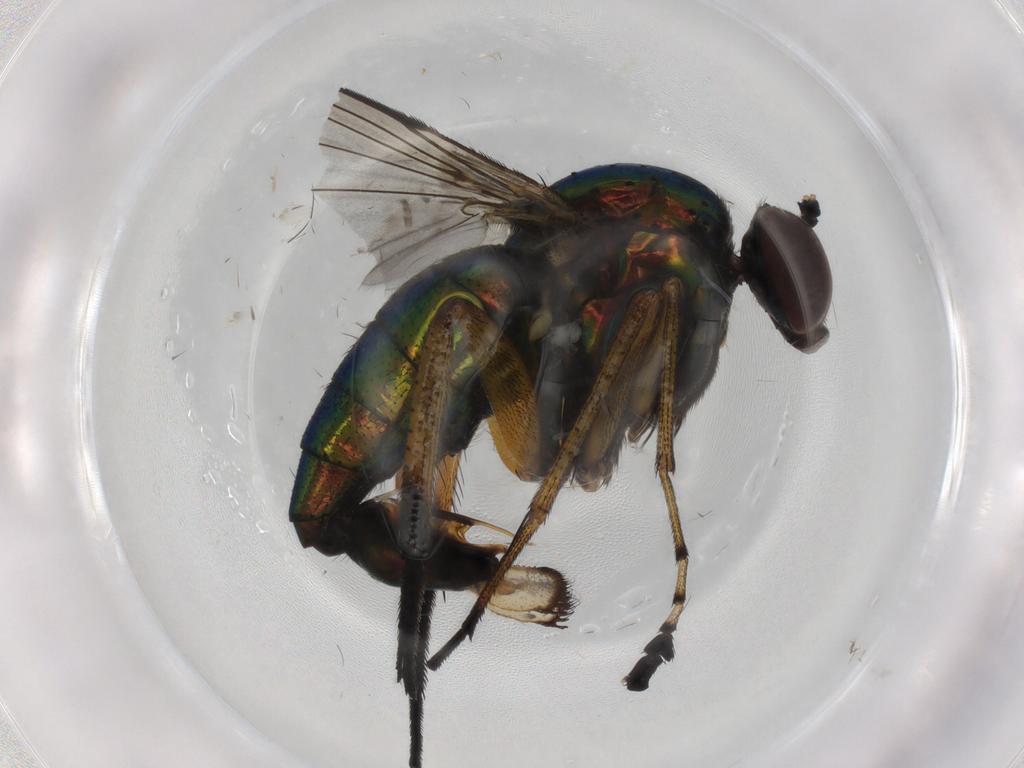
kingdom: Animalia
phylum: Arthropoda
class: Insecta
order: Diptera
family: Dolichopodidae
